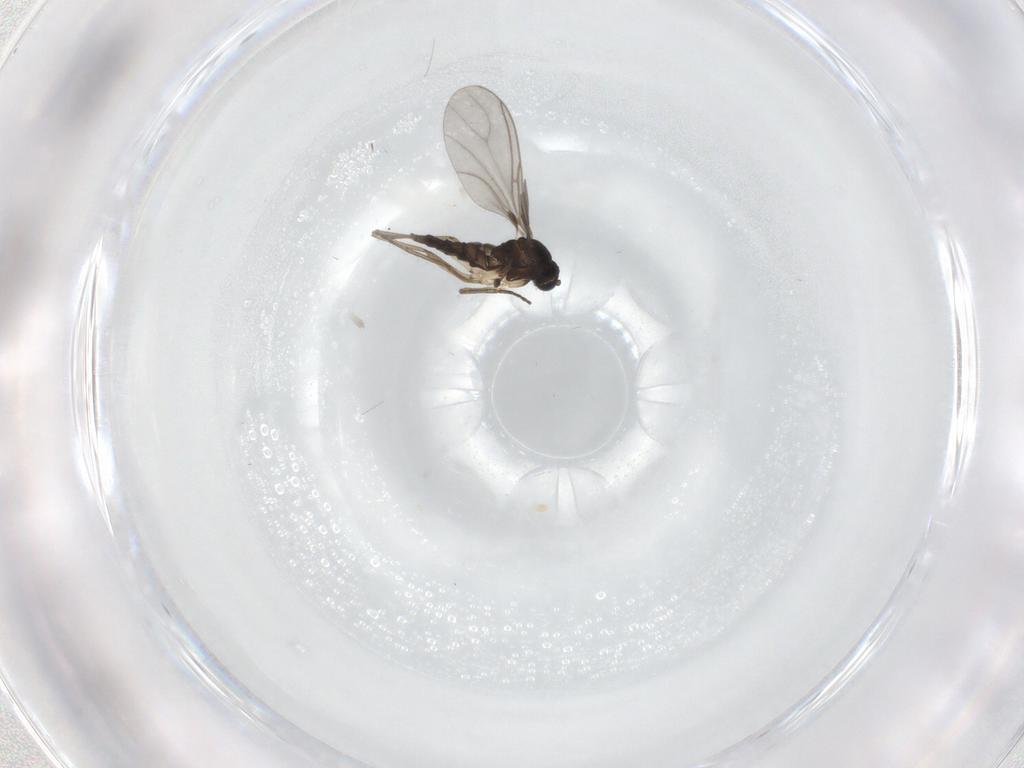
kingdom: Animalia
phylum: Arthropoda
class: Insecta
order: Diptera
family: Sciaridae
